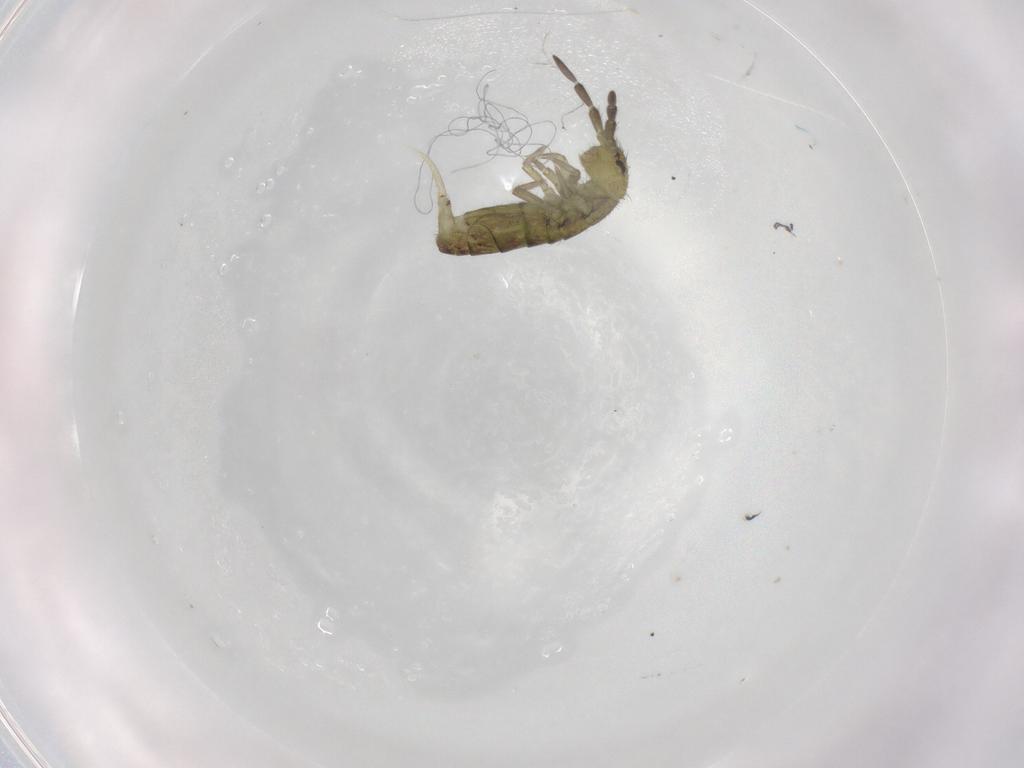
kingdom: Animalia
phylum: Arthropoda
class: Collembola
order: Entomobryomorpha
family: Isotomidae
